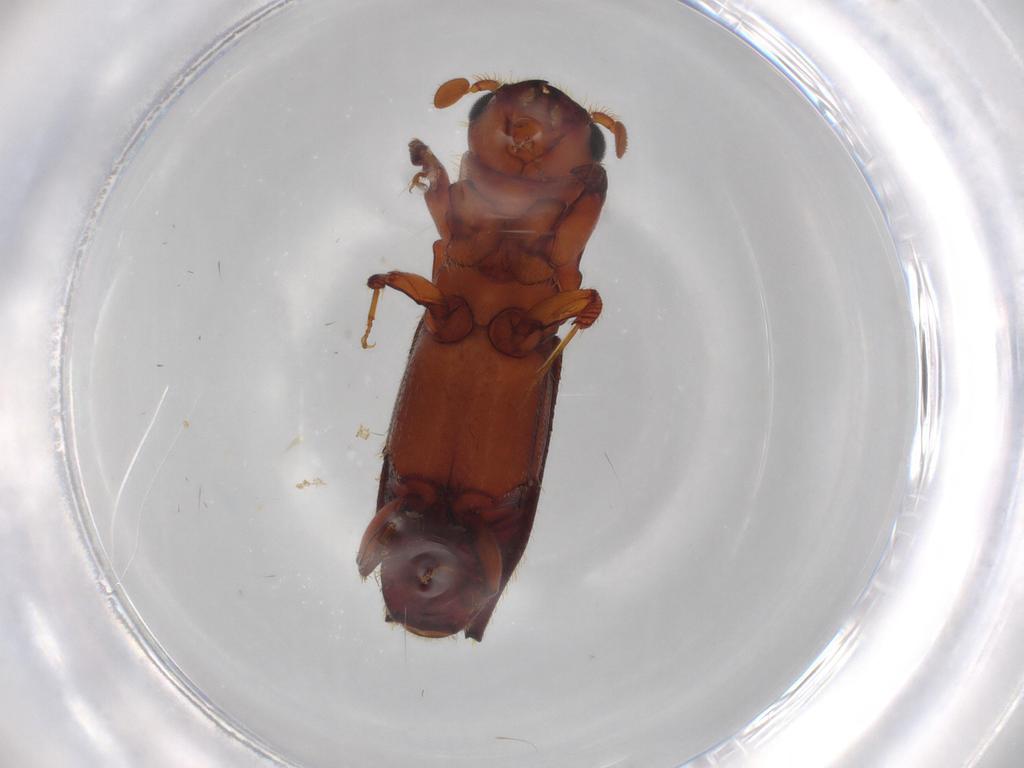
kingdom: Animalia
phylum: Arthropoda
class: Insecta
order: Coleoptera
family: Curculionidae
